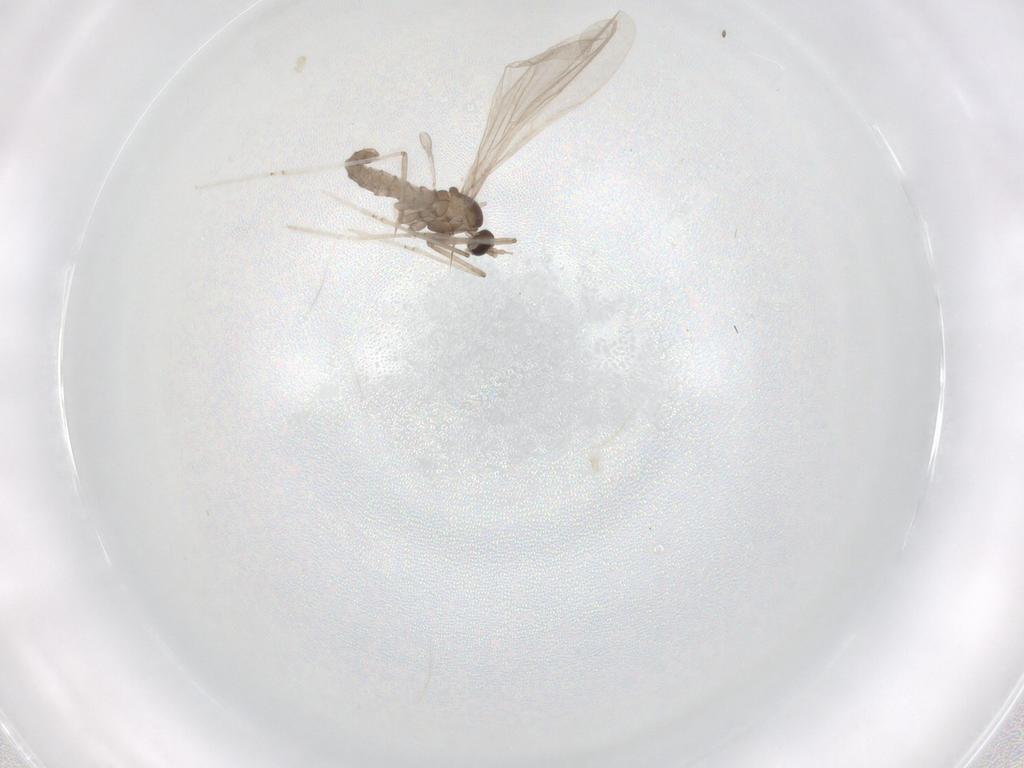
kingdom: Animalia
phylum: Arthropoda
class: Insecta
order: Diptera
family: Cecidomyiidae
